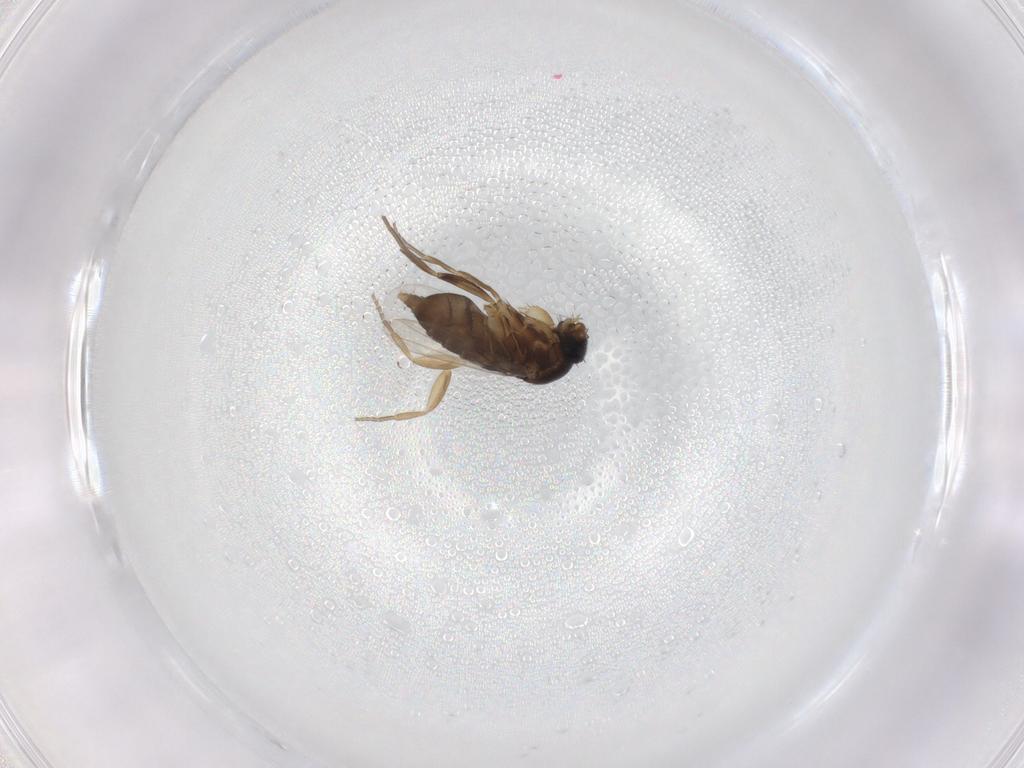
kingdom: Animalia
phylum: Arthropoda
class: Insecta
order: Diptera
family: Phoridae
